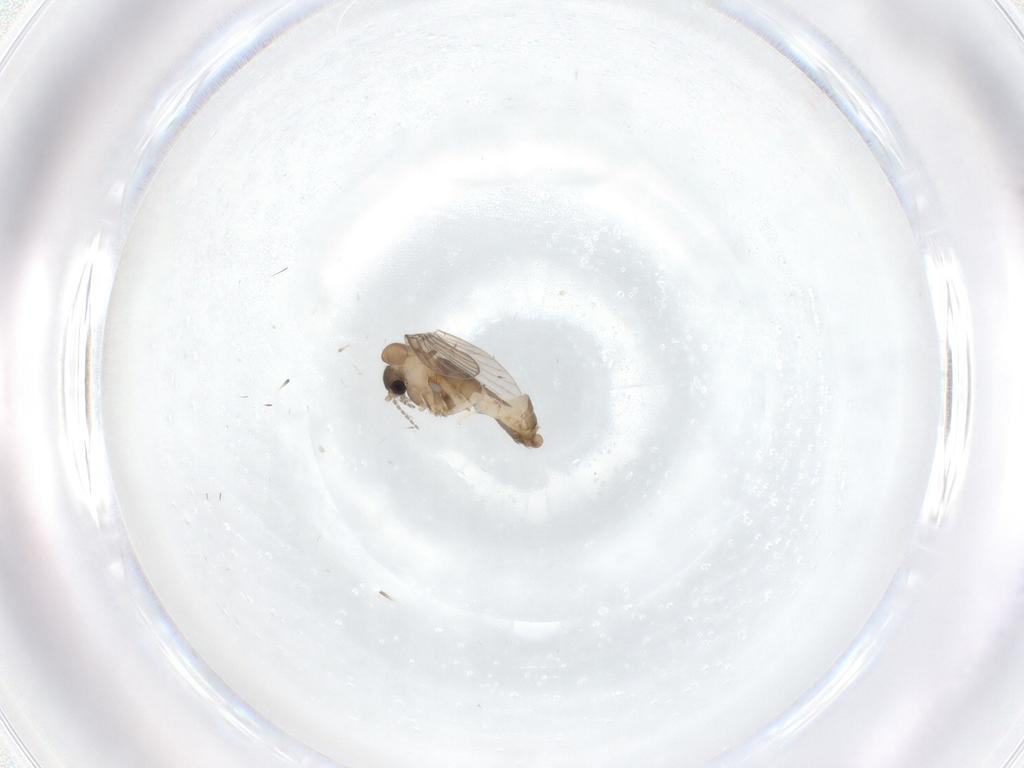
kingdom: Animalia
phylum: Arthropoda
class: Insecta
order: Diptera
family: Psychodidae
